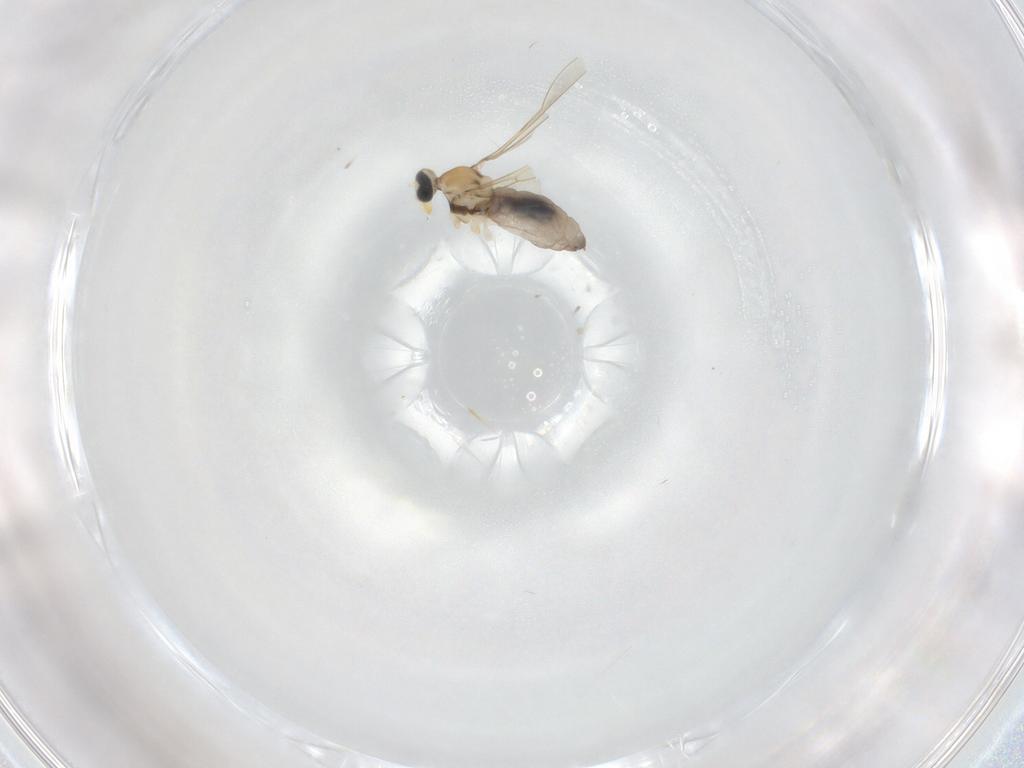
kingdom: Animalia
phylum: Arthropoda
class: Insecta
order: Diptera
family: Cecidomyiidae
